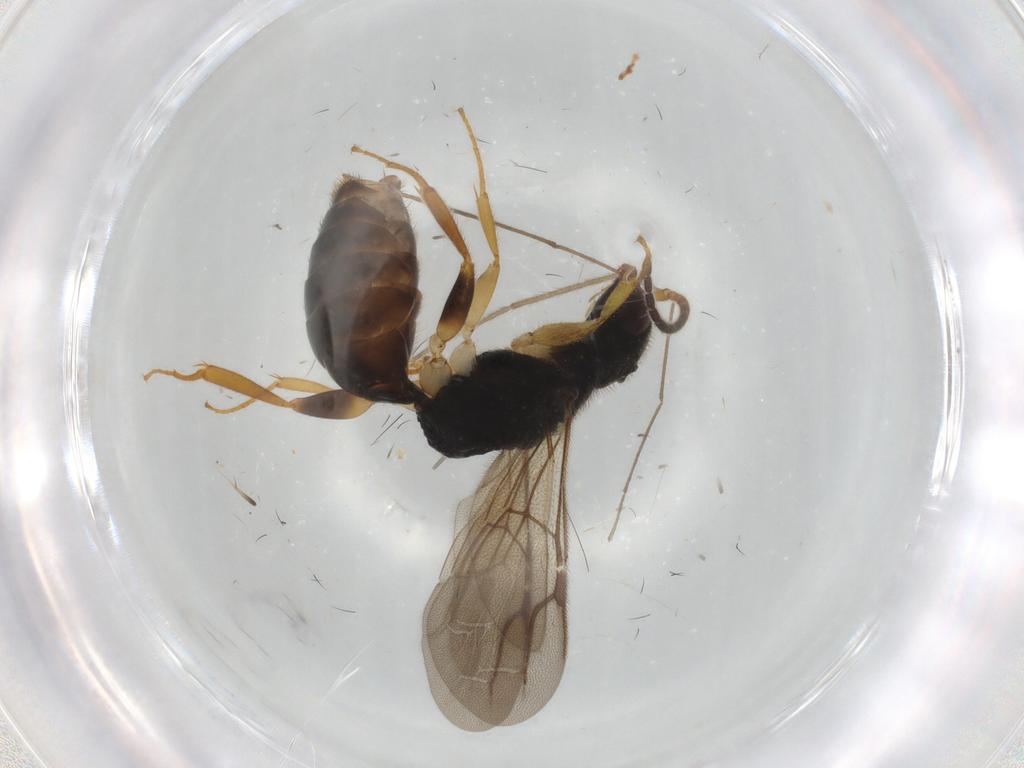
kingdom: Animalia
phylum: Arthropoda
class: Insecta
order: Hymenoptera
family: Bethylidae
